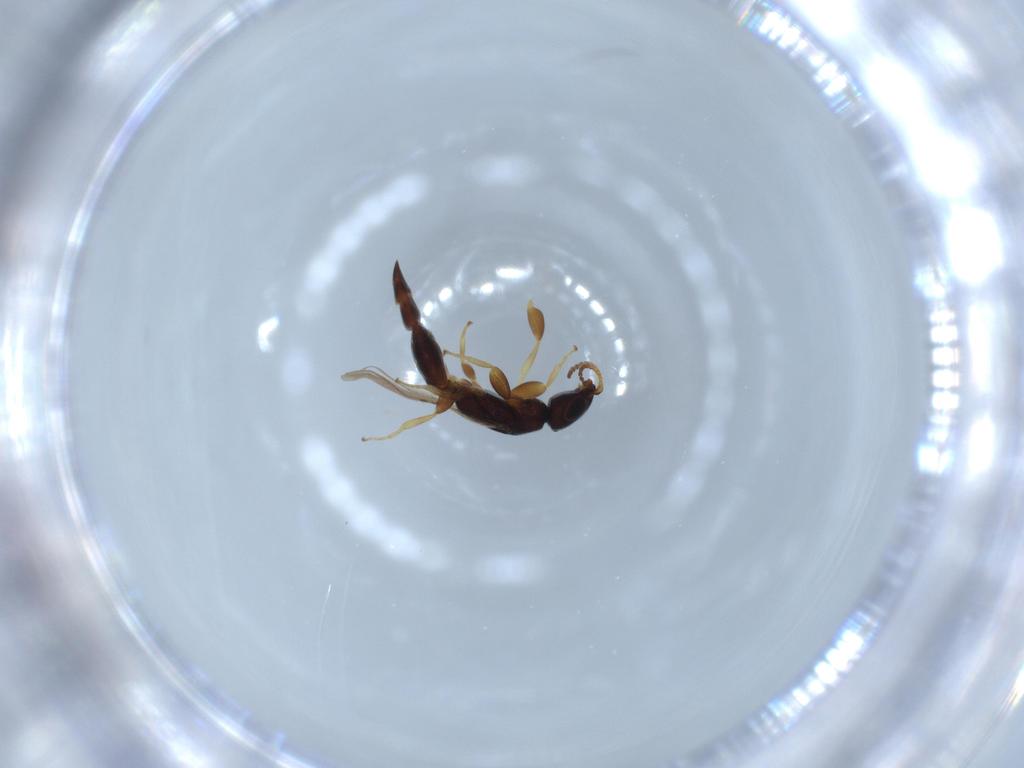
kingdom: Animalia
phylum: Arthropoda
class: Insecta
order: Hymenoptera
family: Bethylidae
